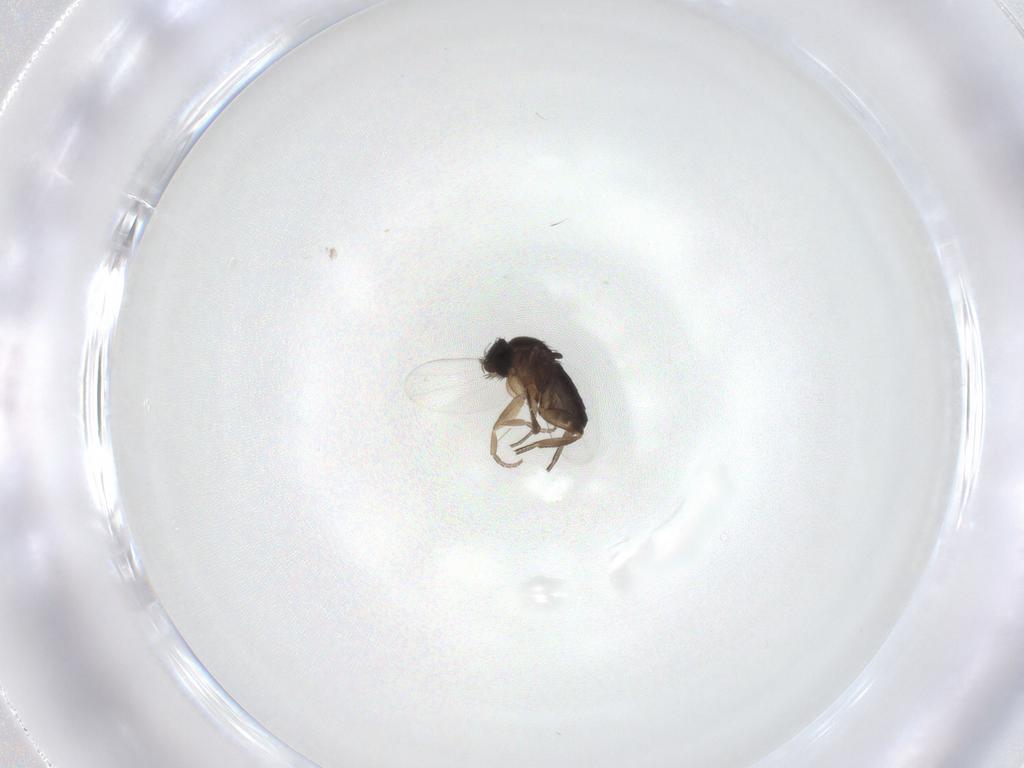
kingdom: Animalia
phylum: Arthropoda
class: Insecta
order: Diptera
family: Phoridae
